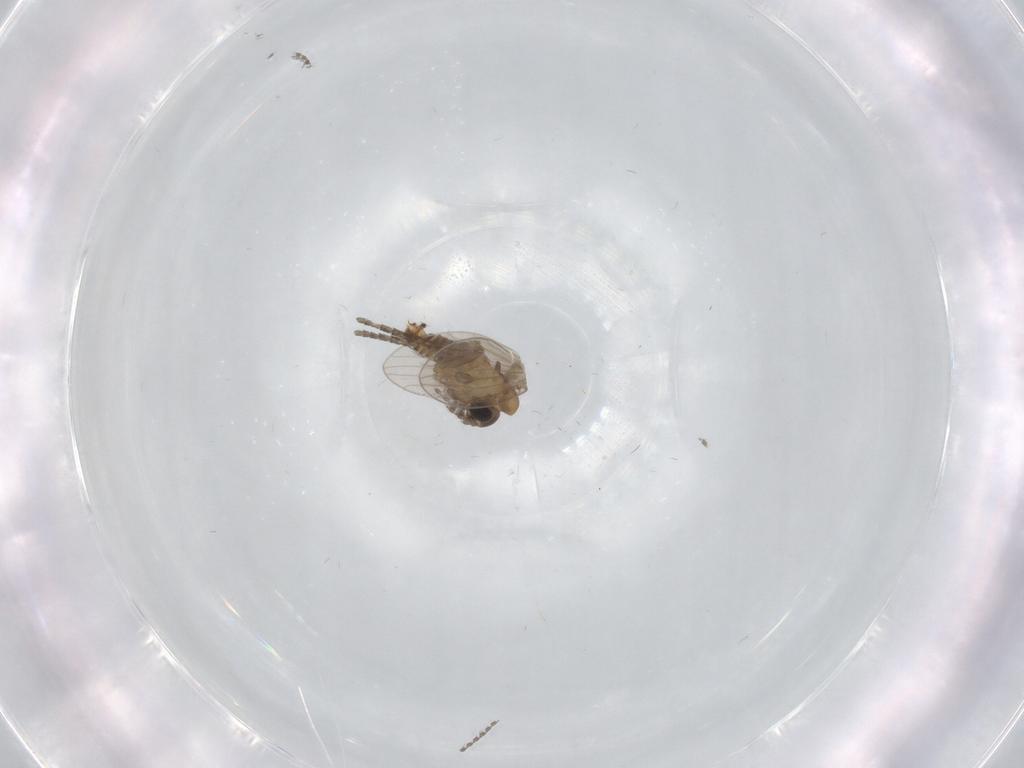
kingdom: Animalia
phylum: Arthropoda
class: Insecta
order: Diptera
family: Psychodidae
